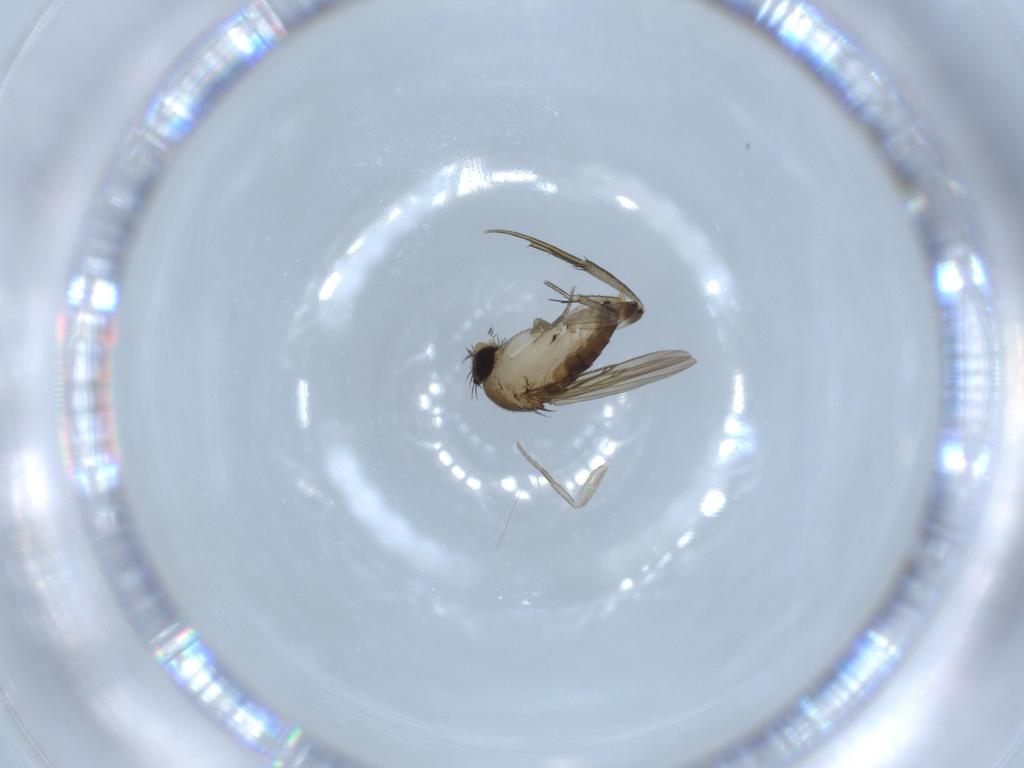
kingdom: Animalia
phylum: Arthropoda
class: Insecta
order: Diptera
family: Phoridae
